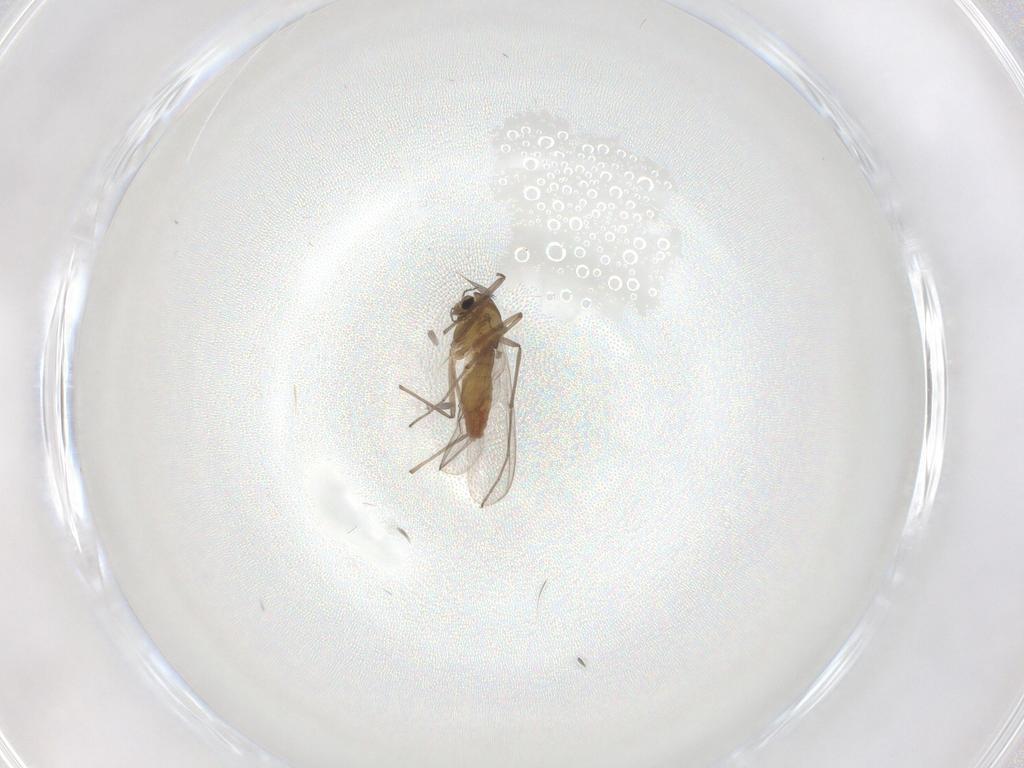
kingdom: Animalia
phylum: Arthropoda
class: Insecta
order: Diptera
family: Chironomidae
